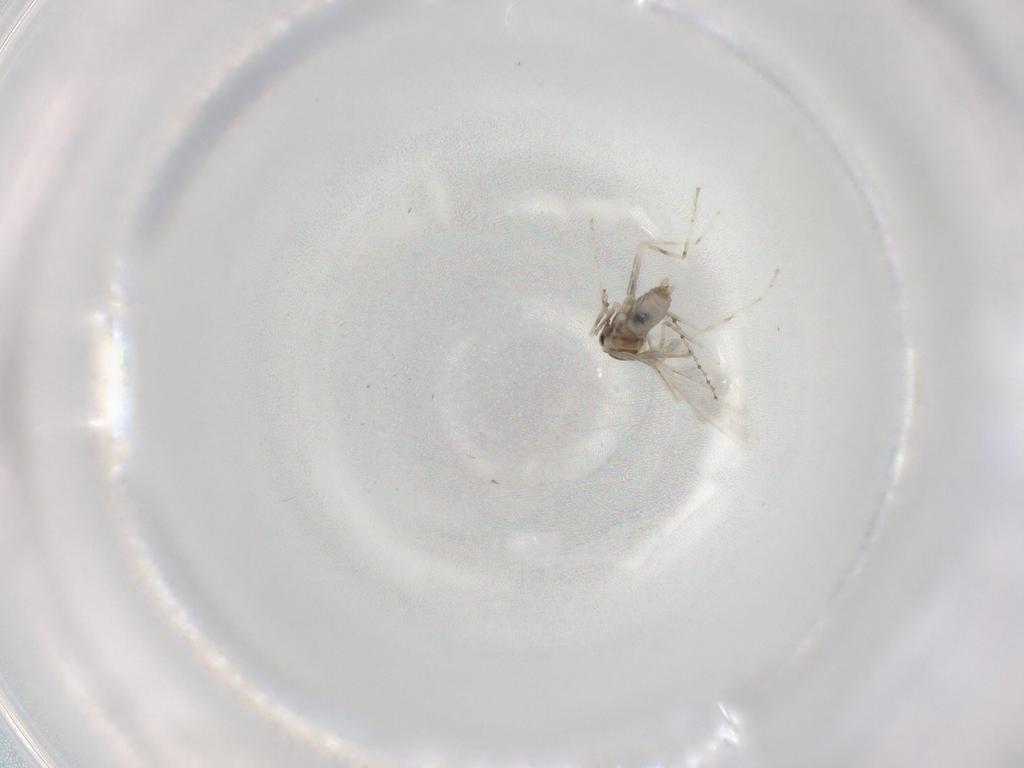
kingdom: Animalia
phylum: Arthropoda
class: Insecta
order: Diptera
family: Cecidomyiidae
